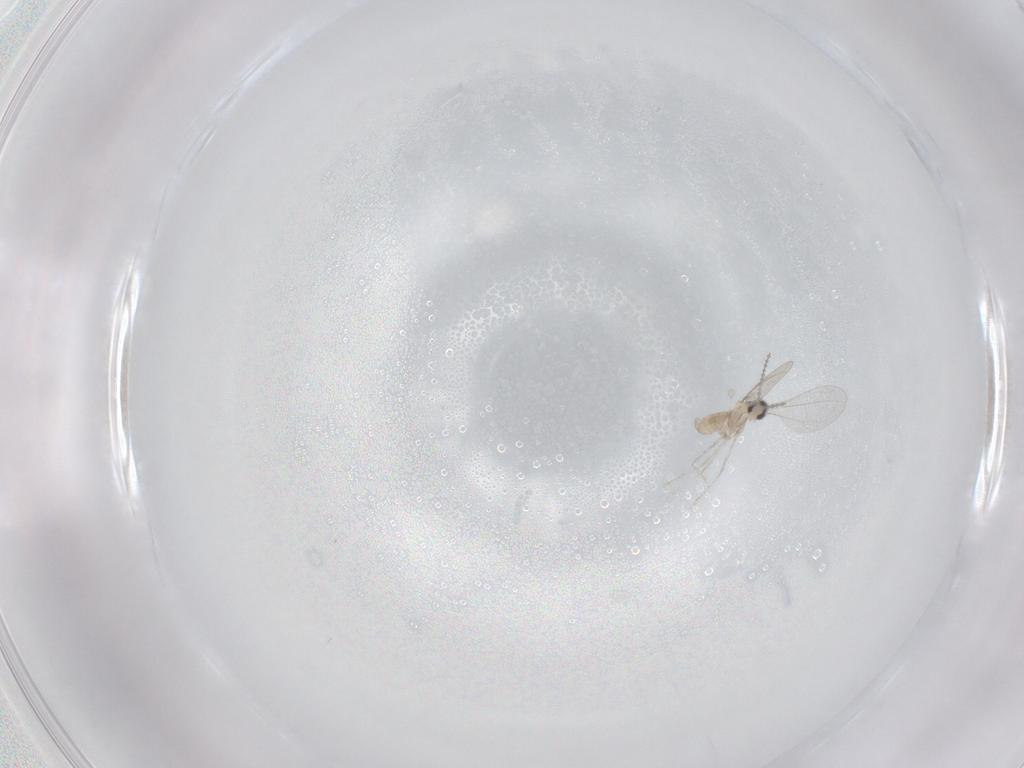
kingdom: Animalia
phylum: Arthropoda
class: Insecta
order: Diptera
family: Cecidomyiidae
